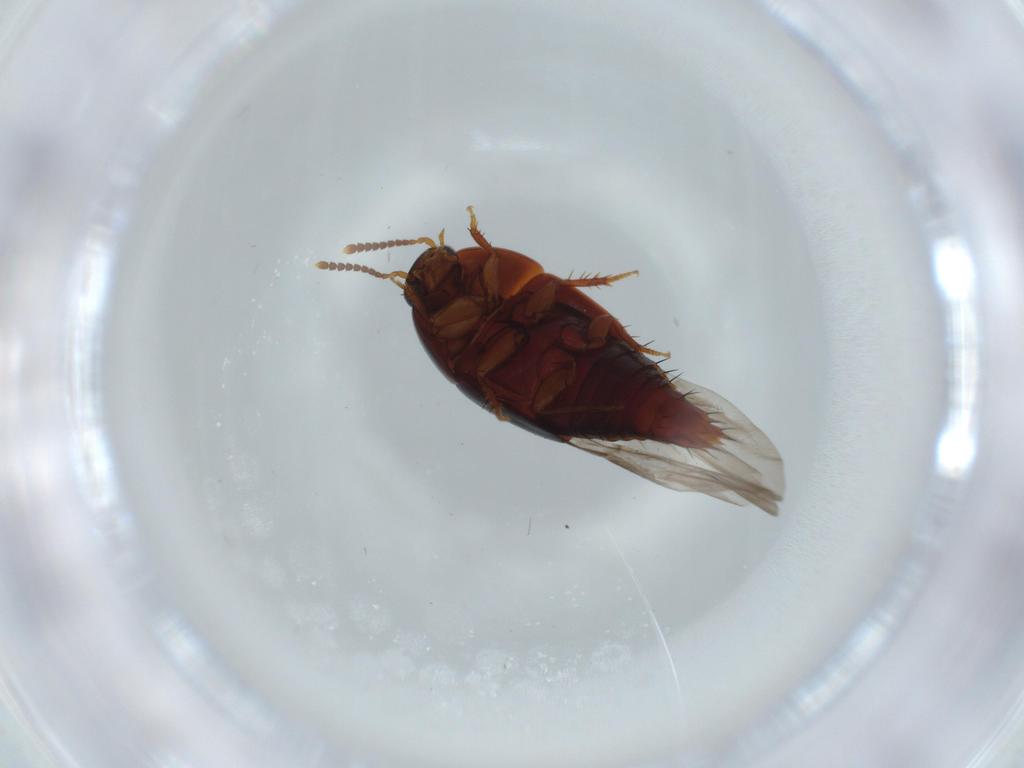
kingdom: Animalia
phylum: Arthropoda
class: Insecta
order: Coleoptera
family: Staphylinidae
